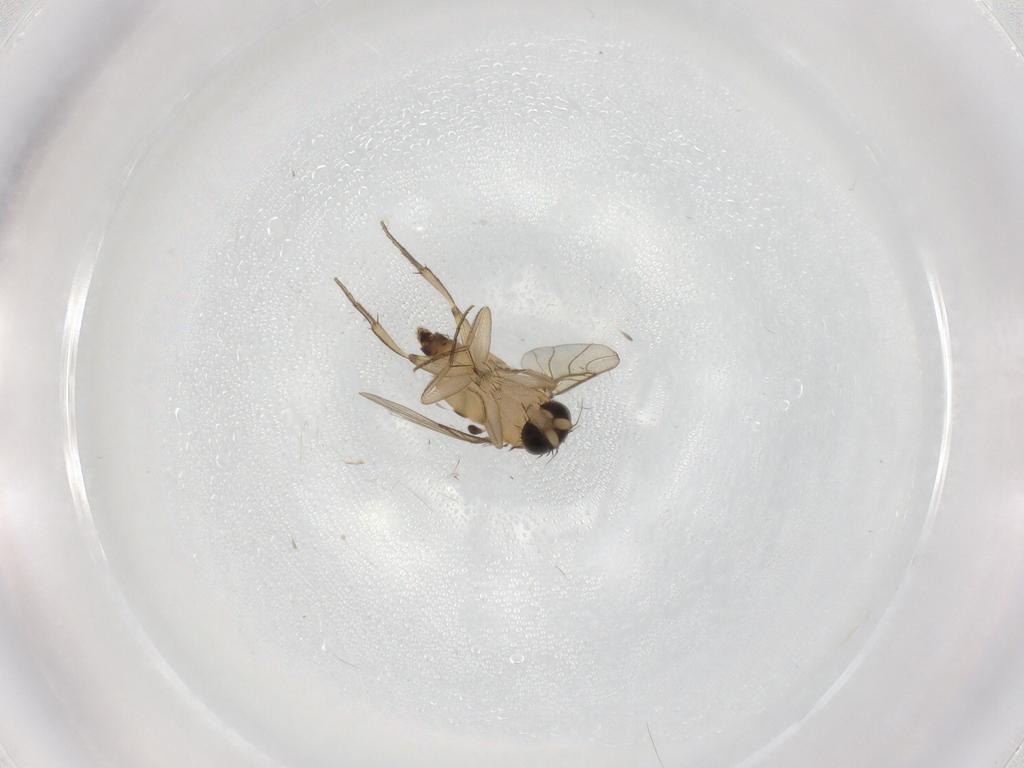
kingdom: Animalia
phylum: Arthropoda
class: Insecta
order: Diptera
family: Phoridae
